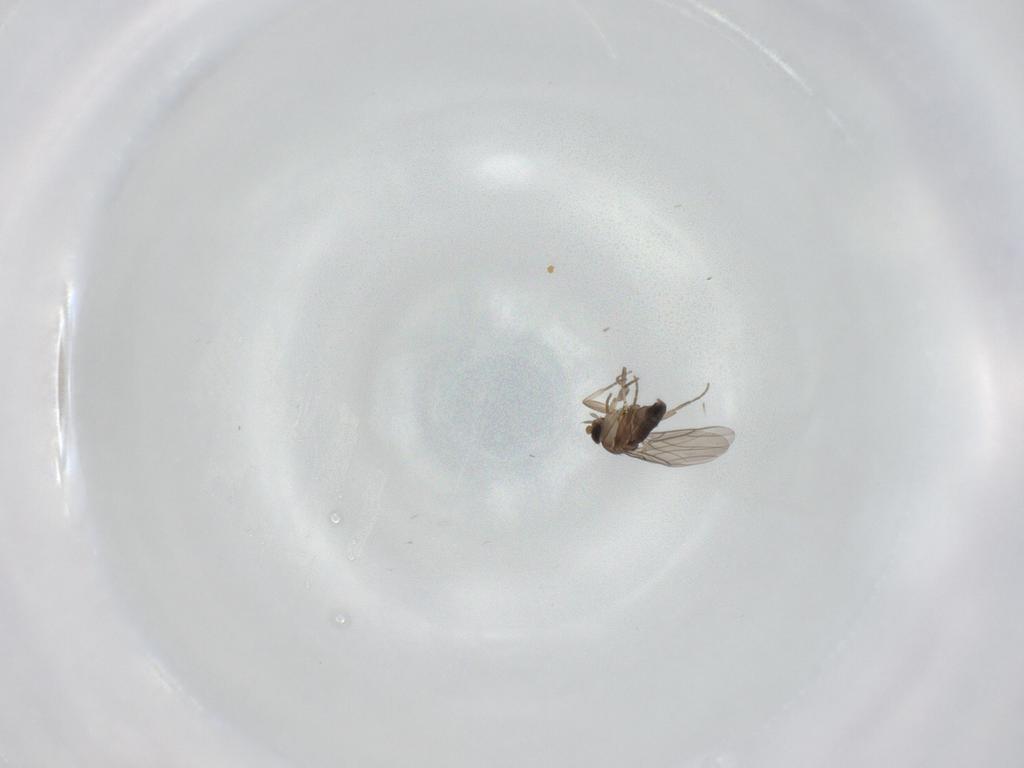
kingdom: Animalia
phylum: Arthropoda
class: Insecta
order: Diptera
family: Phoridae
